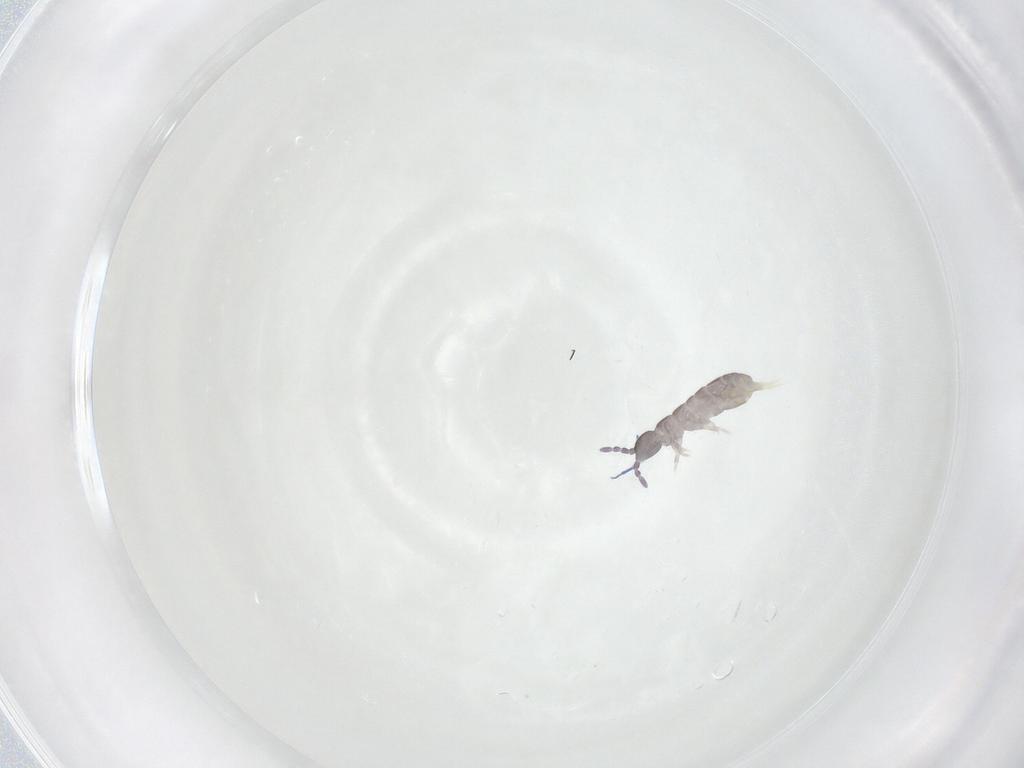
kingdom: Animalia
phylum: Arthropoda
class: Collembola
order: Entomobryomorpha
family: Isotomidae
